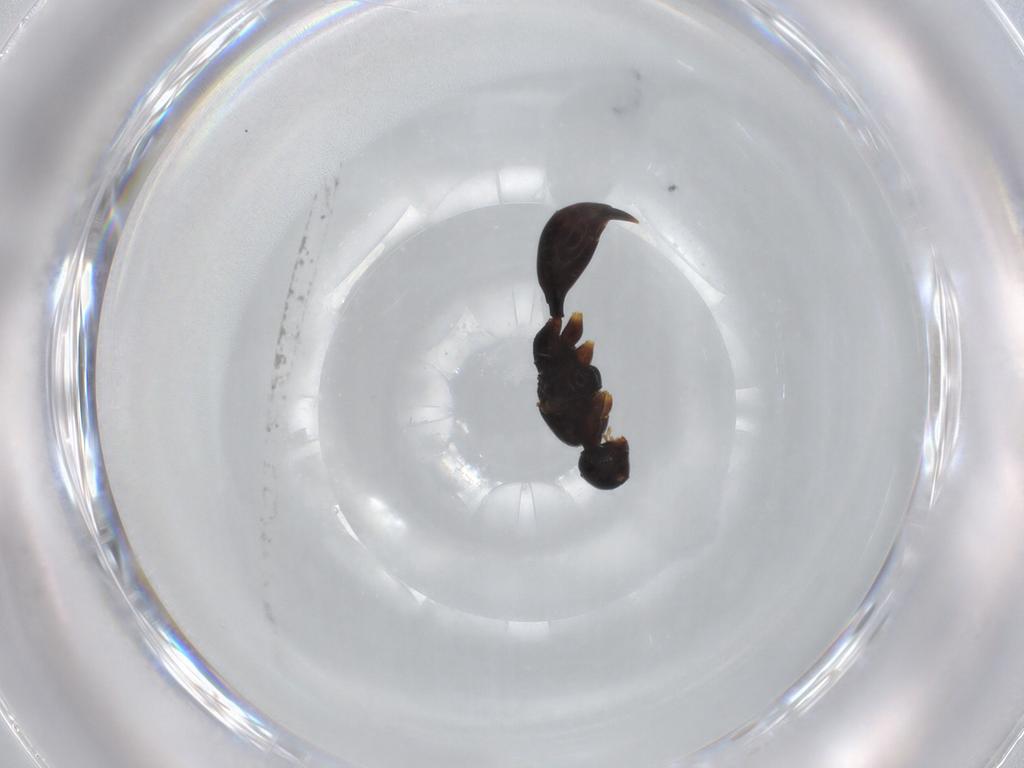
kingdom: Animalia
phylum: Arthropoda
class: Insecta
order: Hymenoptera
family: Proctotrupidae
